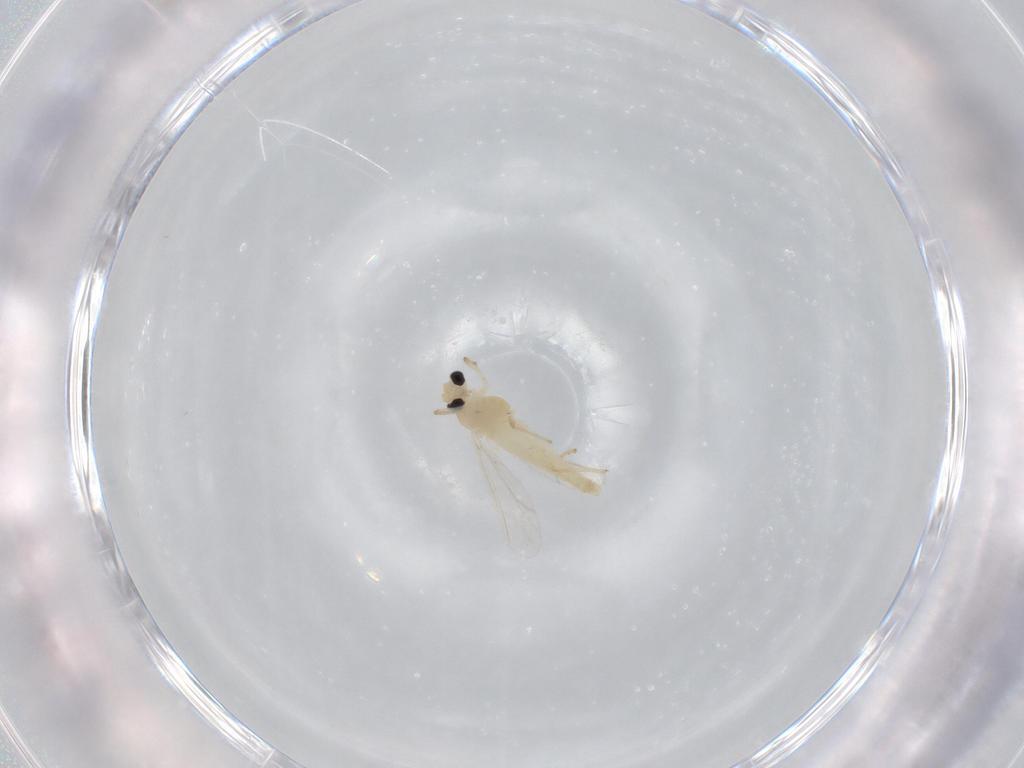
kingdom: Animalia
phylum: Arthropoda
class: Insecta
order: Diptera
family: Chironomidae
